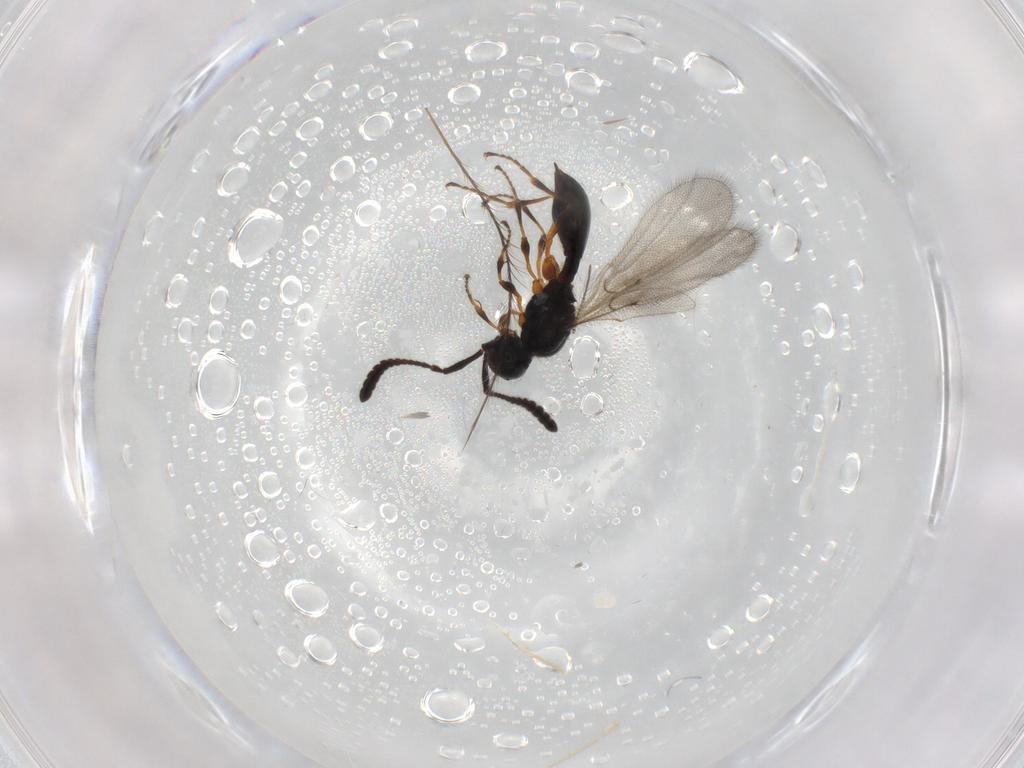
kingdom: Animalia
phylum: Arthropoda
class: Insecta
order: Hymenoptera
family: Diapriidae
